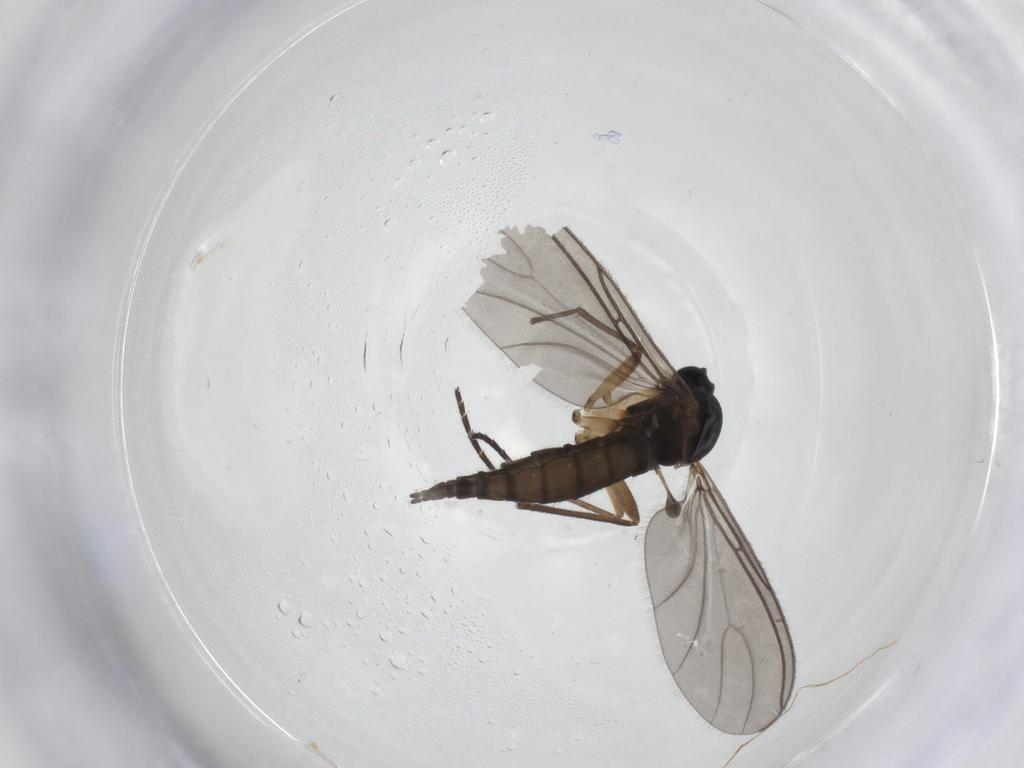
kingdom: Animalia
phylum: Arthropoda
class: Insecta
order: Diptera
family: Sciaridae
